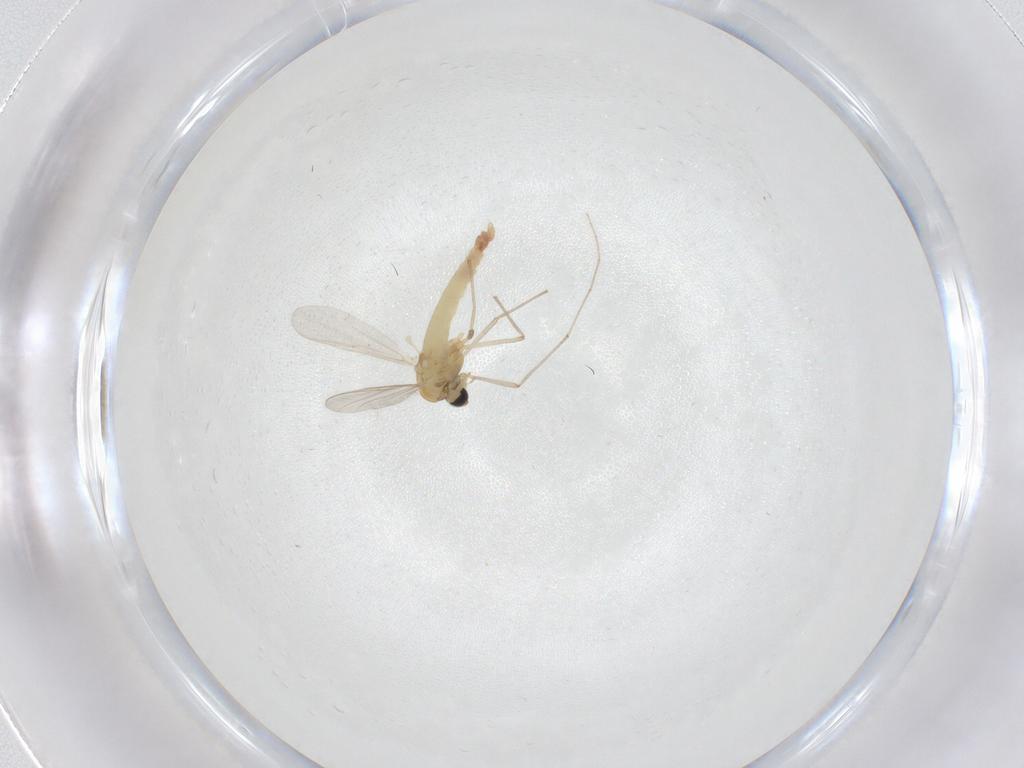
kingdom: Animalia
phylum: Arthropoda
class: Insecta
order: Diptera
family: Dolichopodidae
